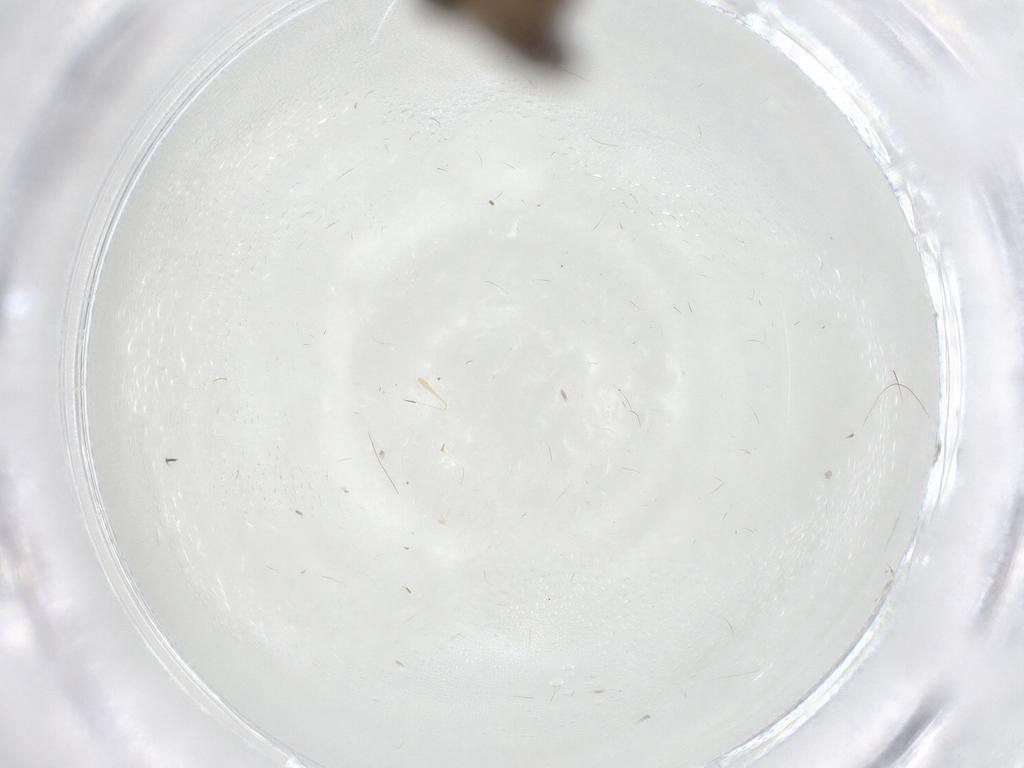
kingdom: Animalia
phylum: Arthropoda
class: Insecta
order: Diptera
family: Psychodidae
